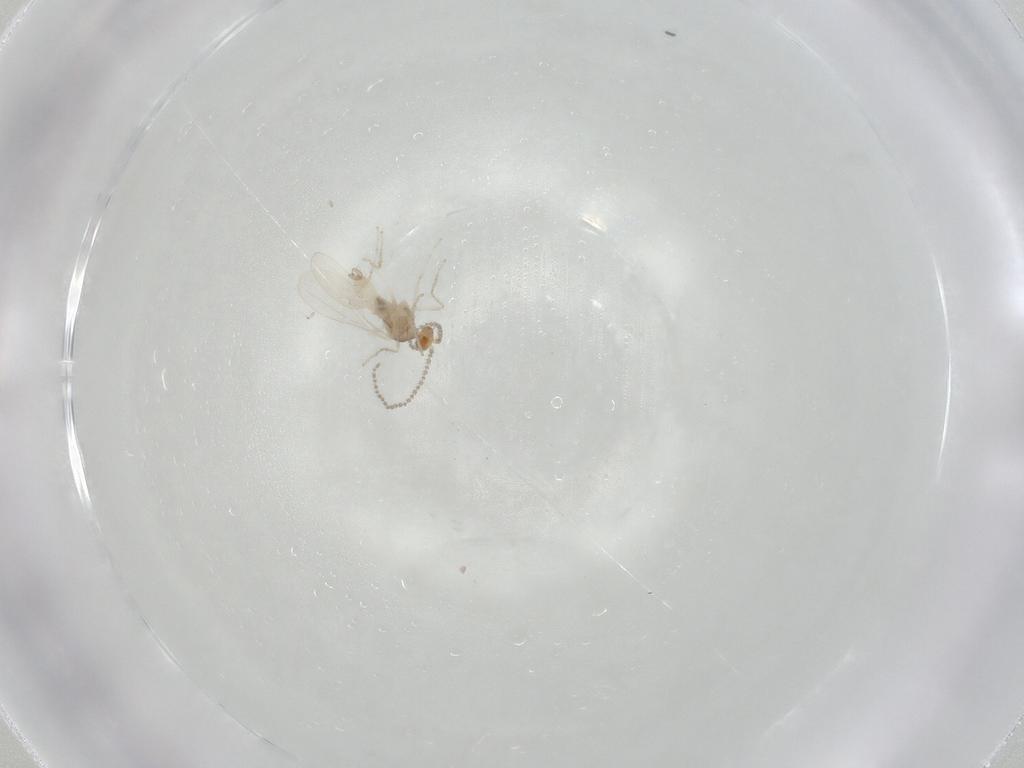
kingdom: Animalia
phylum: Arthropoda
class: Insecta
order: Diptera
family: Cecidomyiidae
